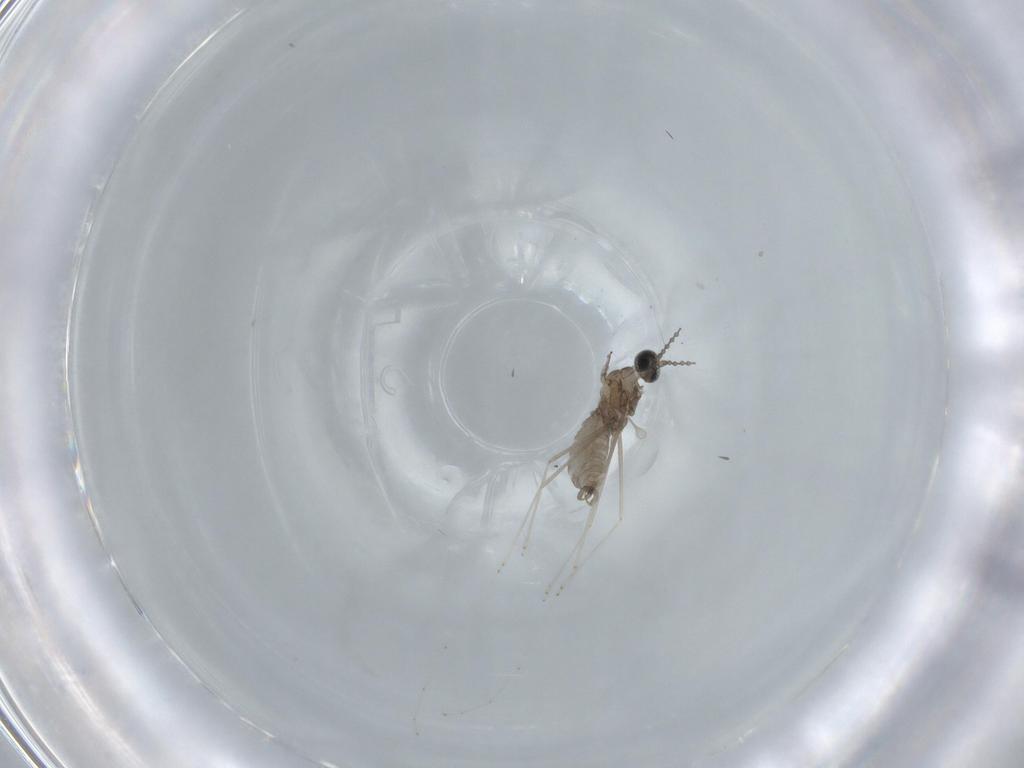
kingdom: Animalia
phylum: Arthropoda
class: Insecta
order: Diptera
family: Cecidomyiidae
